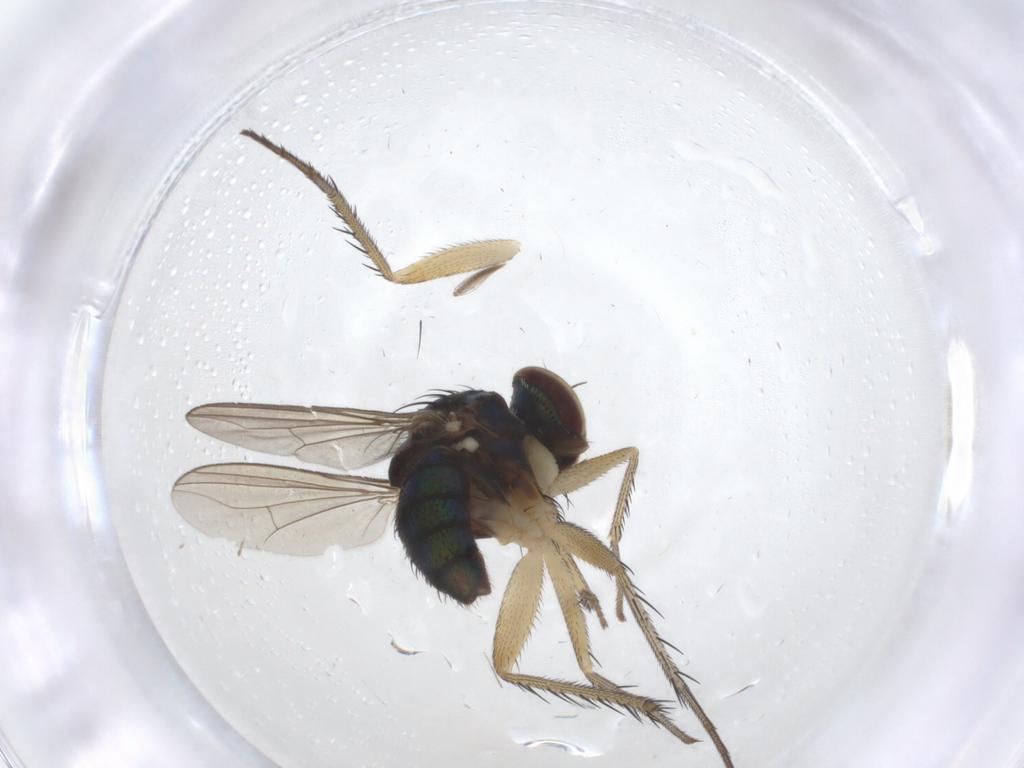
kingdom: Animalia
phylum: Arthropoda
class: Insecta
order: Diptera
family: Dolichopodidae
